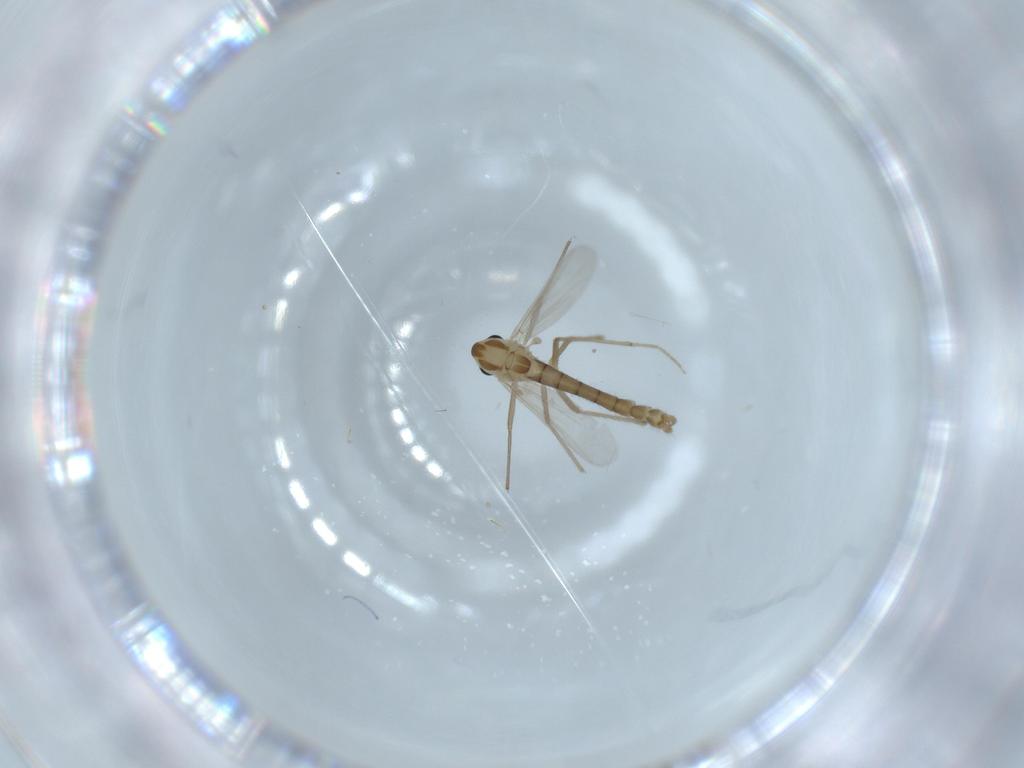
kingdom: Animalia
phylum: Arthropoda
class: Insecta
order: Diptera
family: Chironomidae
